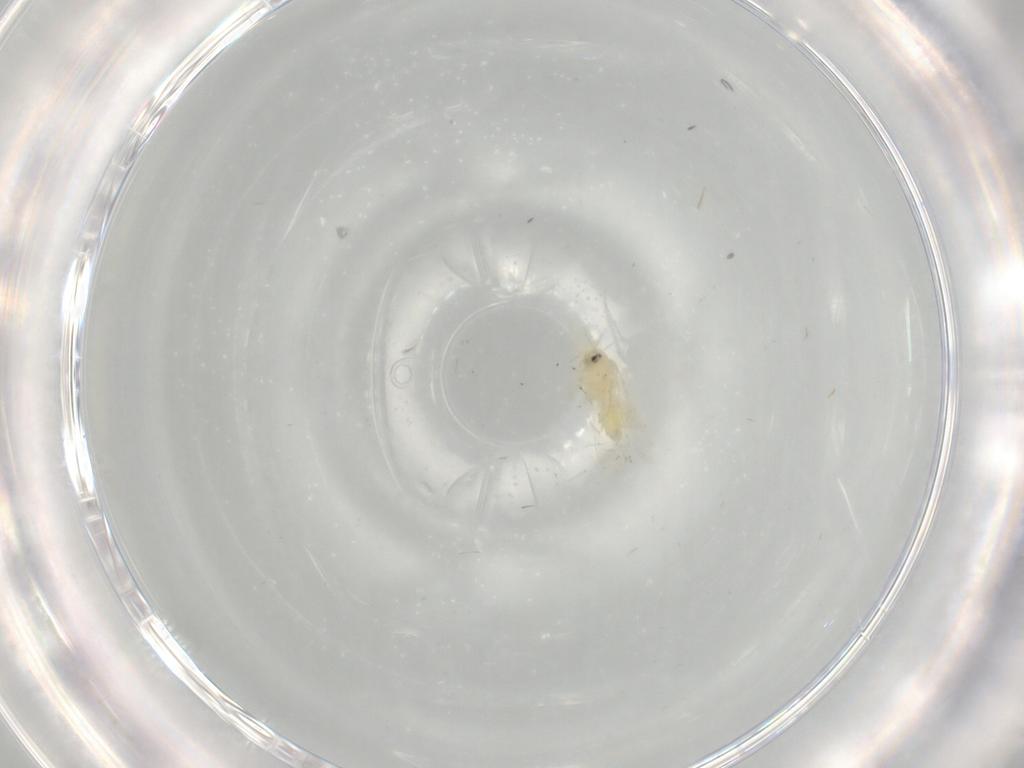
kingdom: Animalia
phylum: Arthropoda
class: Insecta
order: Hemiptera
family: Aleyrodidae
